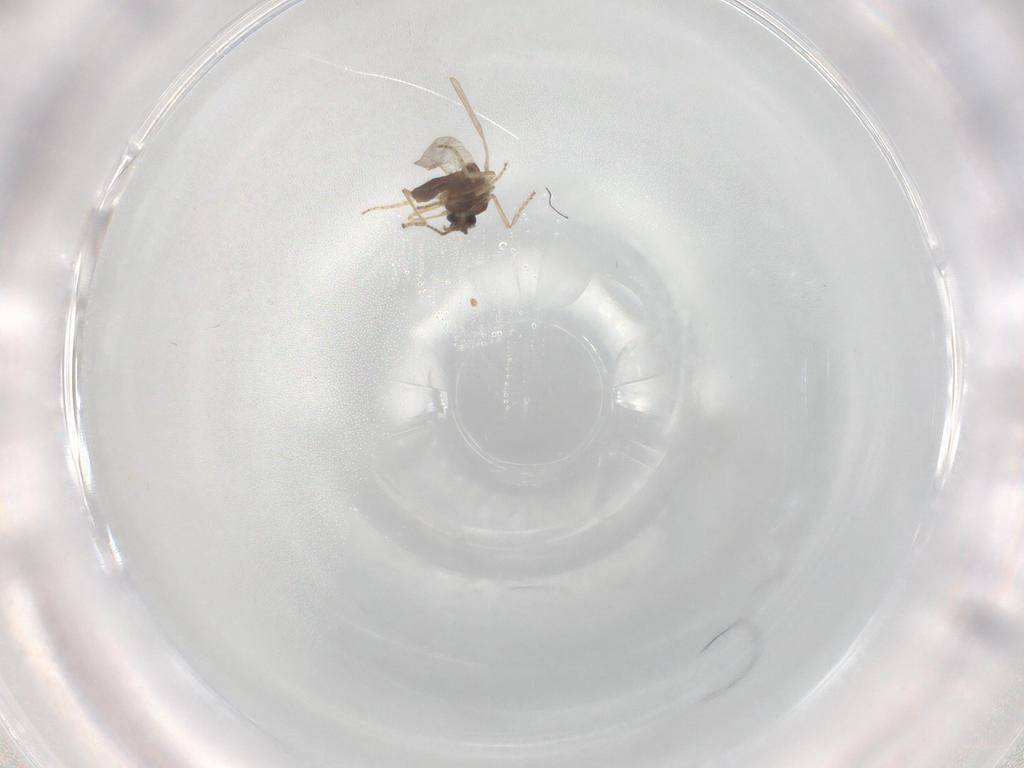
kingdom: Animalia
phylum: Arthropoda
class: Insecta
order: Diptera
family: Ceratopogonidae
